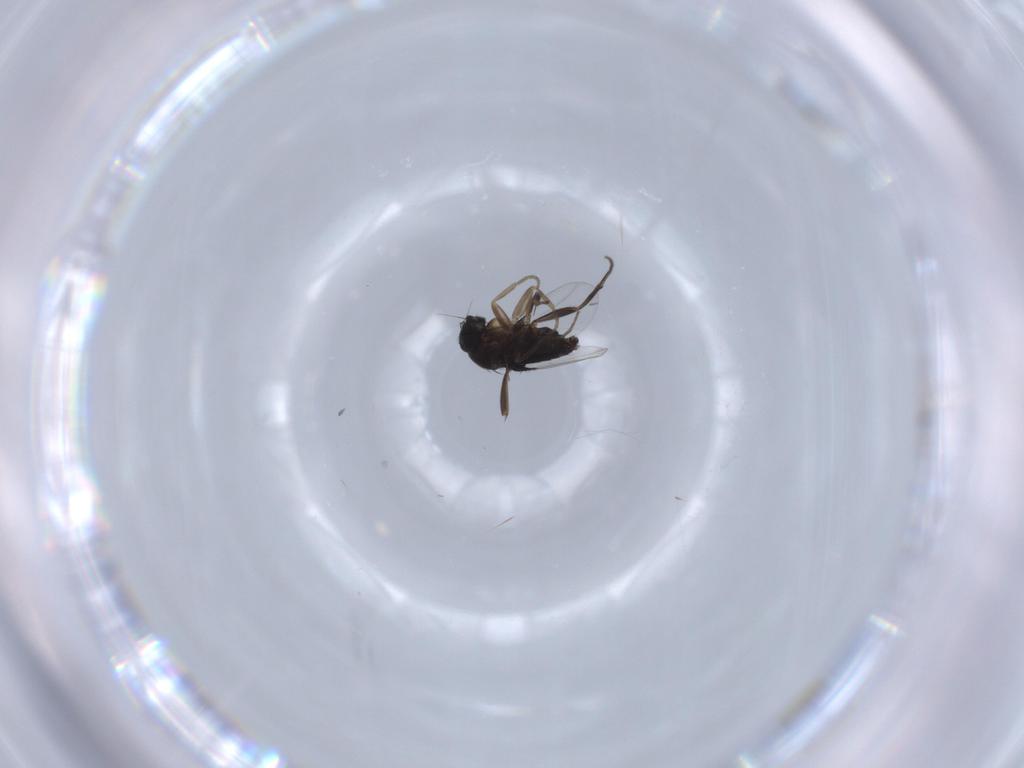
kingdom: Animalia
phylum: Arthropoda
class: Insecta
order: Diptera
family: Phoridae
